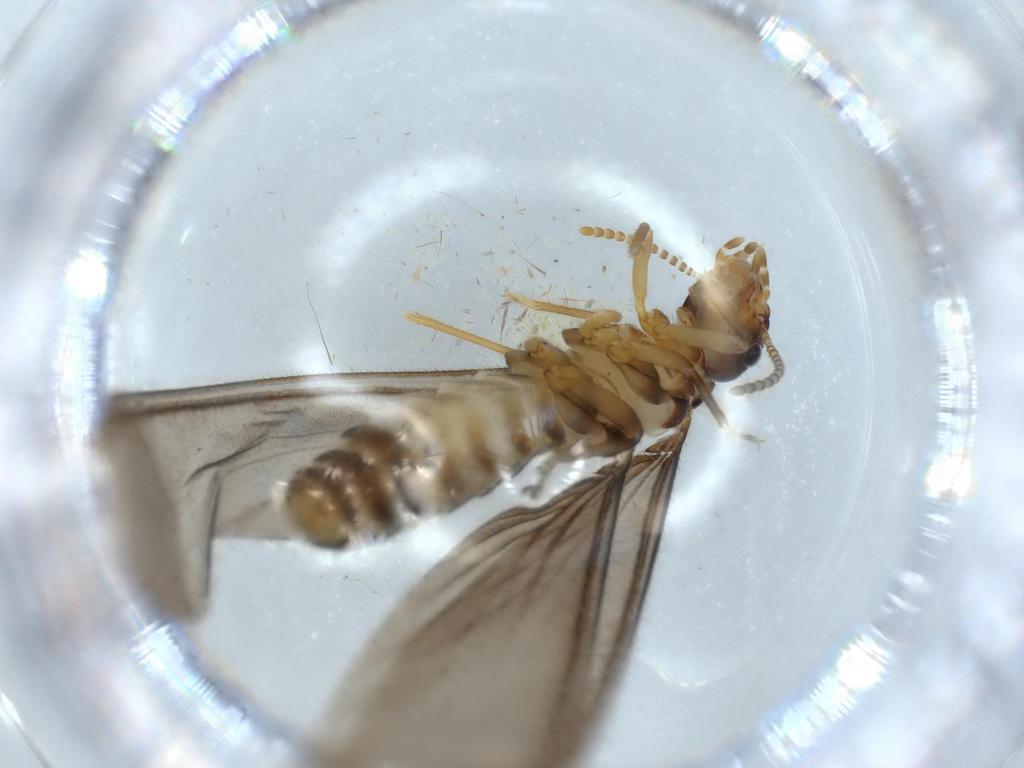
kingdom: Animalia
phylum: Arthropoda
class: Insecta
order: Blattodea
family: Termitidae
